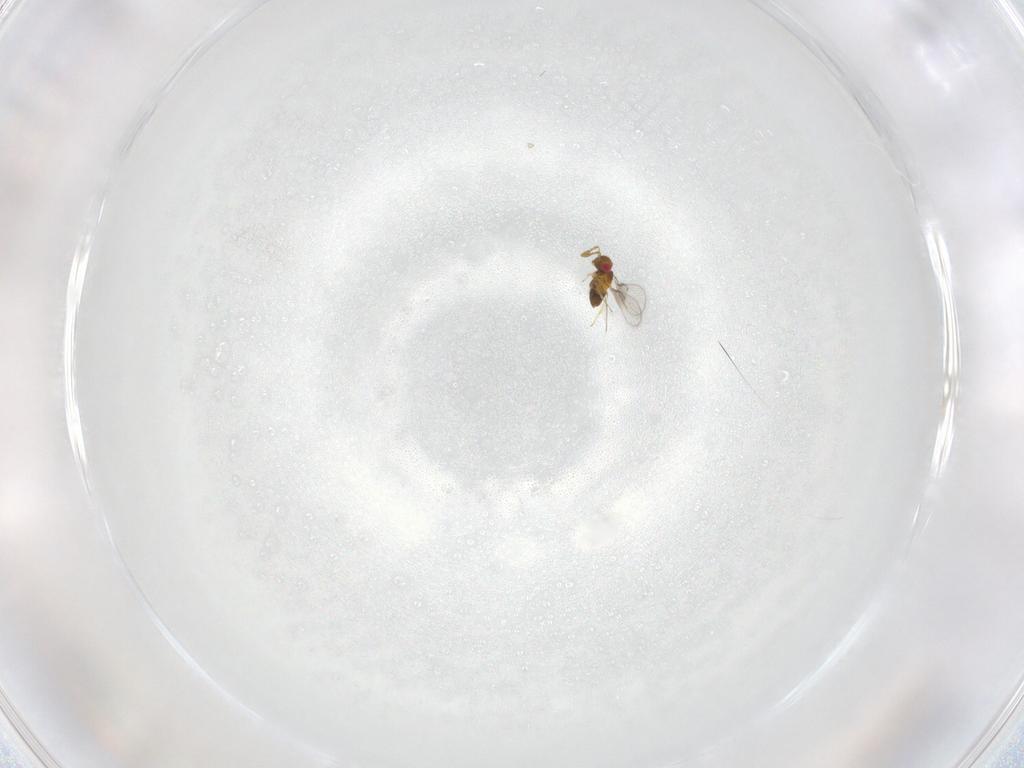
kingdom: Animalia
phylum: Arthropoda
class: Insecta
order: Hymenoptera
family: Trichogrammatidae
